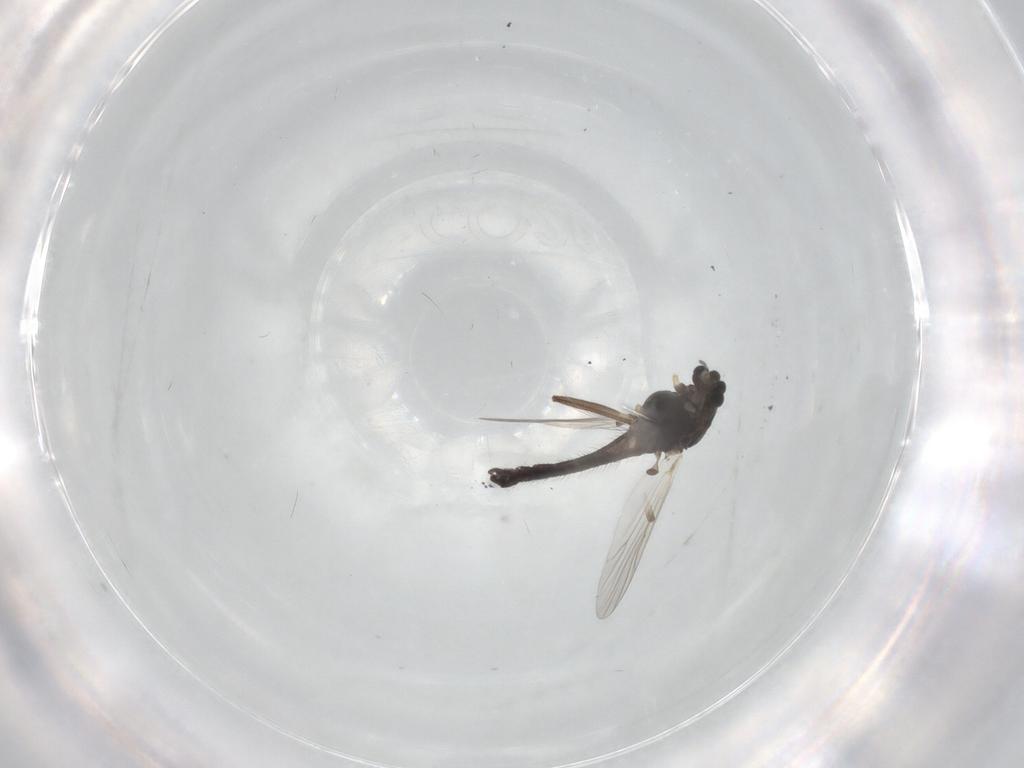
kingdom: Animalia
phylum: Arthropoda
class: Insecta
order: Diptera
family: Chironomidae
